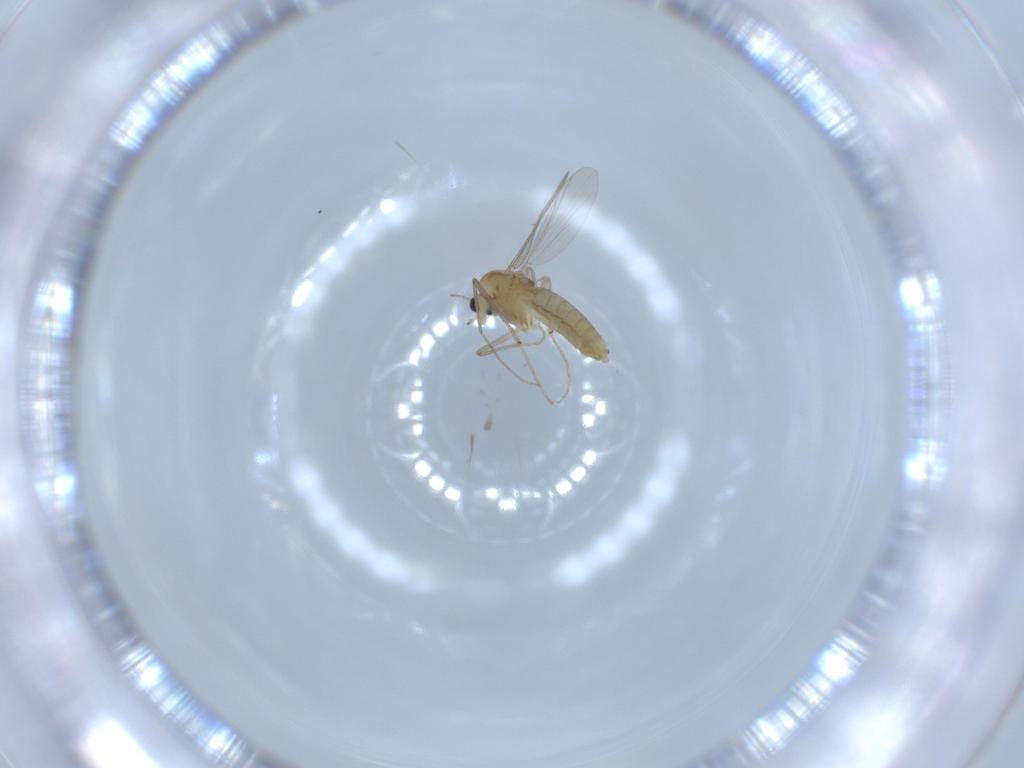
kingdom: Animalia
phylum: Arthropoda
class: Insecta
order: Diptera
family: Chironomidae
